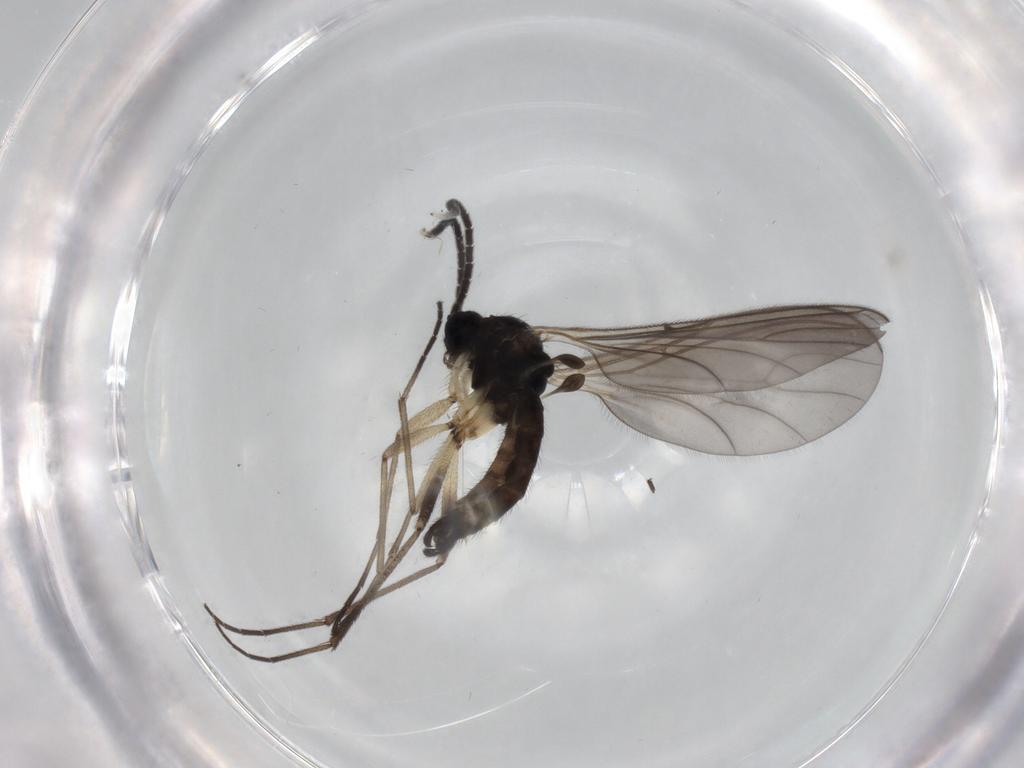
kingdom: Animalia
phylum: Arthropoda
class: Insecta
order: Diptera
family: Sciaridae
